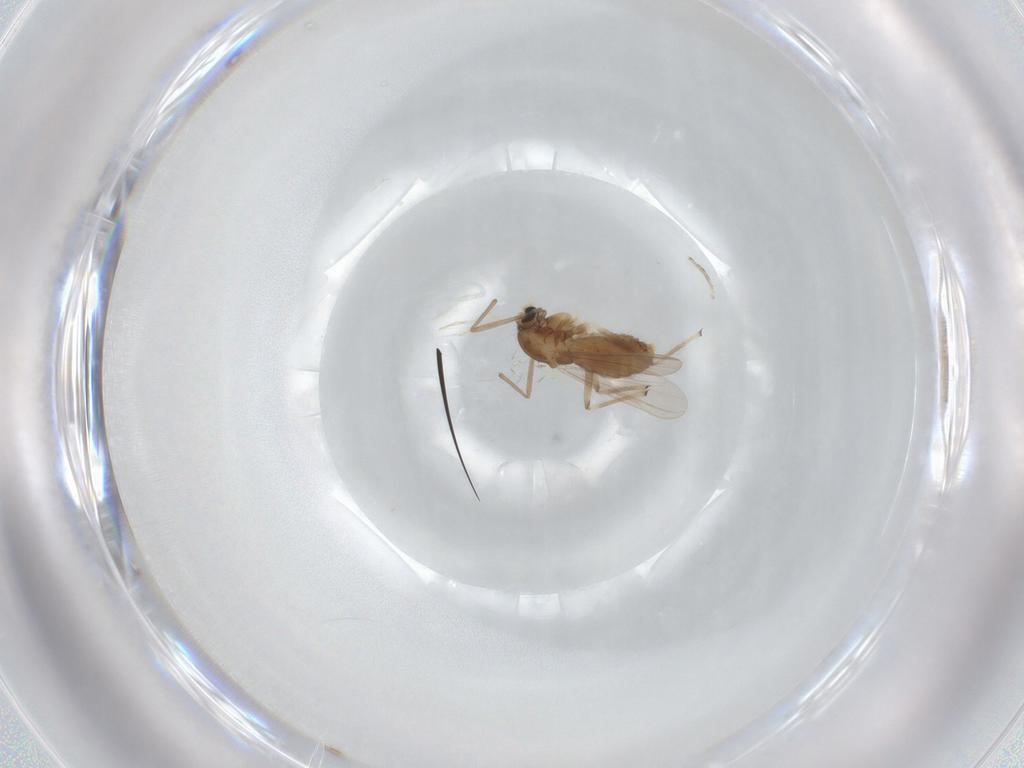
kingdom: Animalia
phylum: Arthropoda
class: Insecta
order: Diptera
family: Chironomidae
